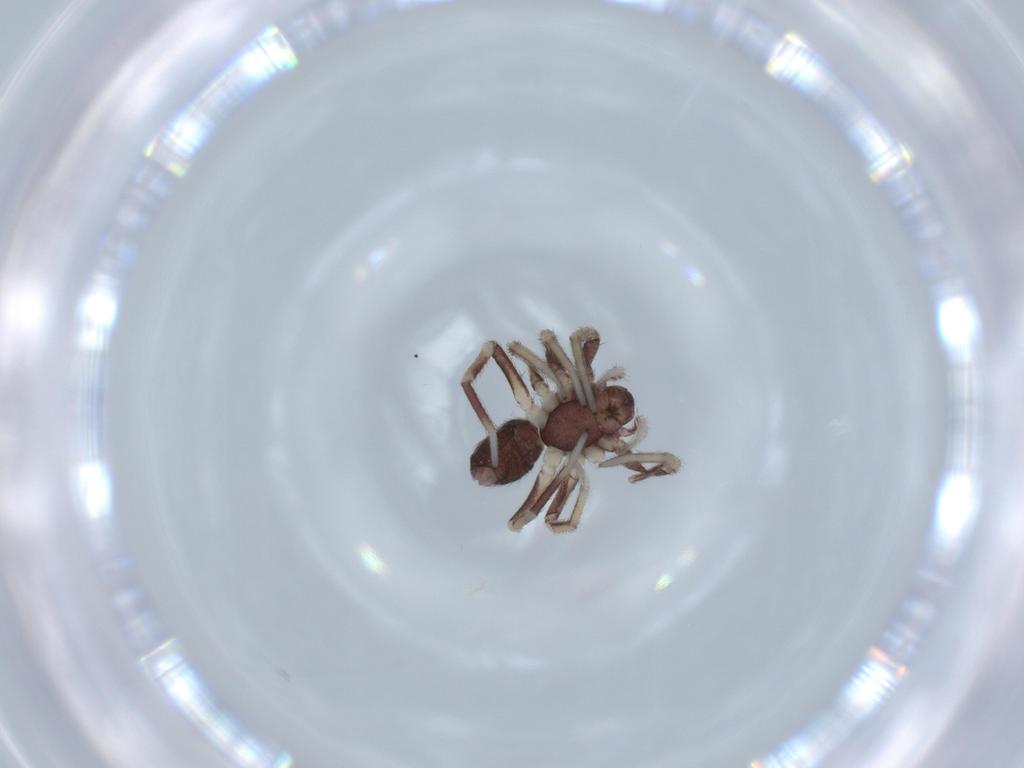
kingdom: Animalia
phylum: Arthropoda
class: Arachnida
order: Araneae
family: Corinnidae
